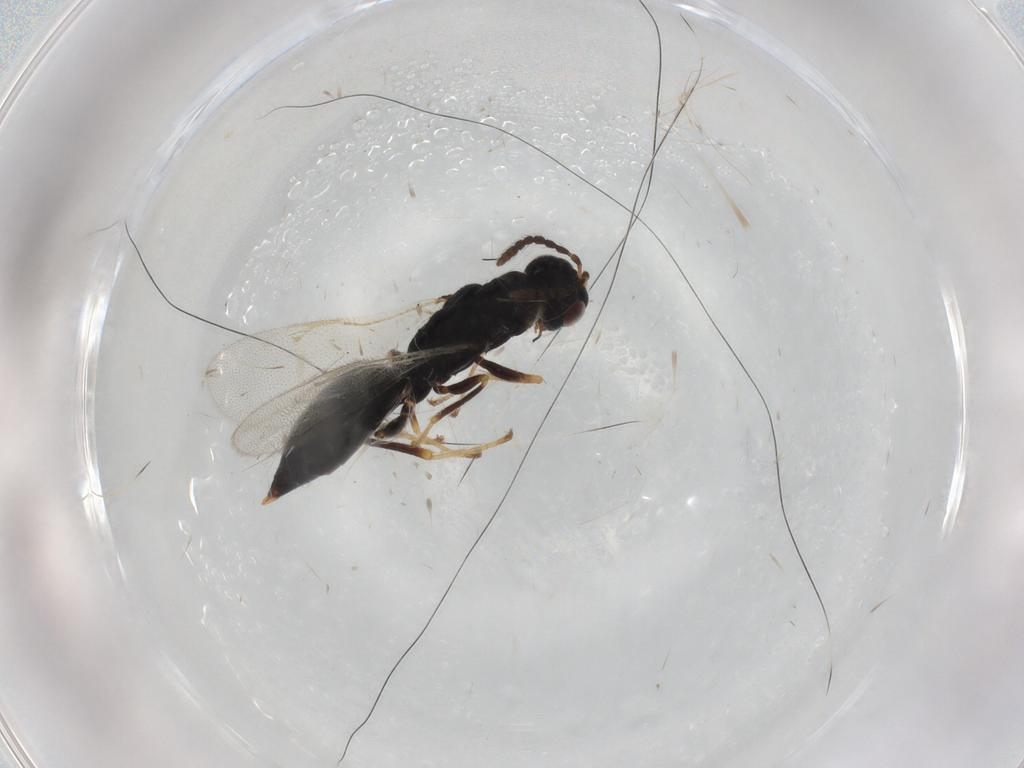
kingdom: Animalia
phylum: Arthropoda
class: Insecta
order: Hymenoptera
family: Eurytomidae
